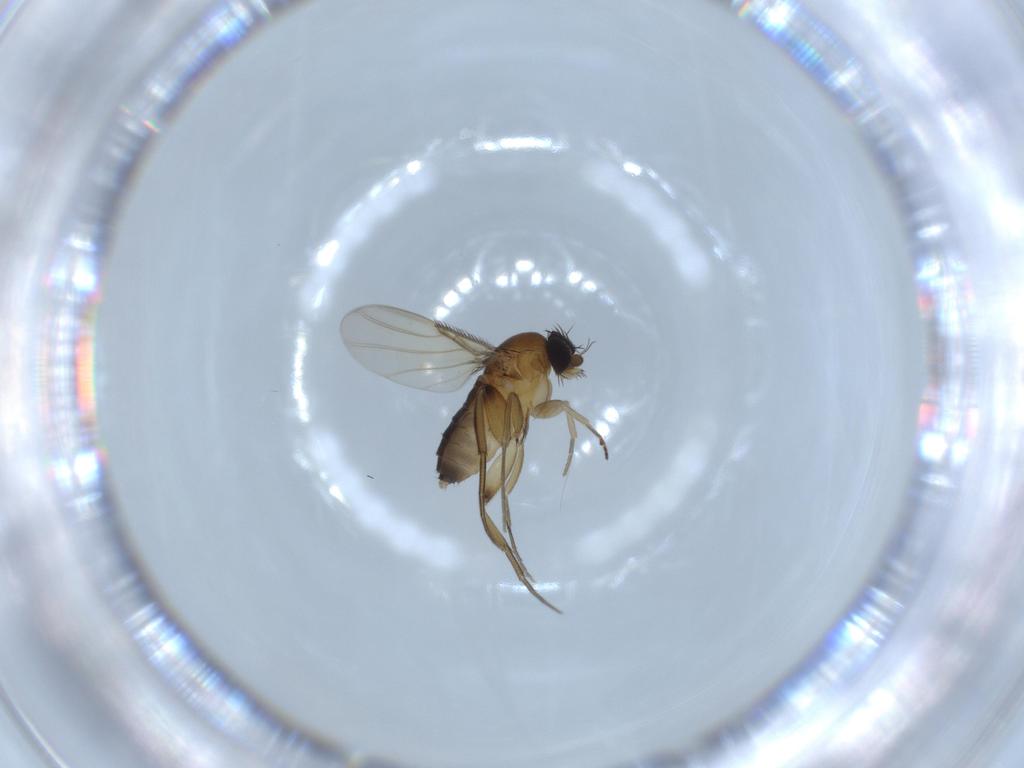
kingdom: Animalia
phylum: Arthropoda
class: Insecta
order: Diptera
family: Phoridae
